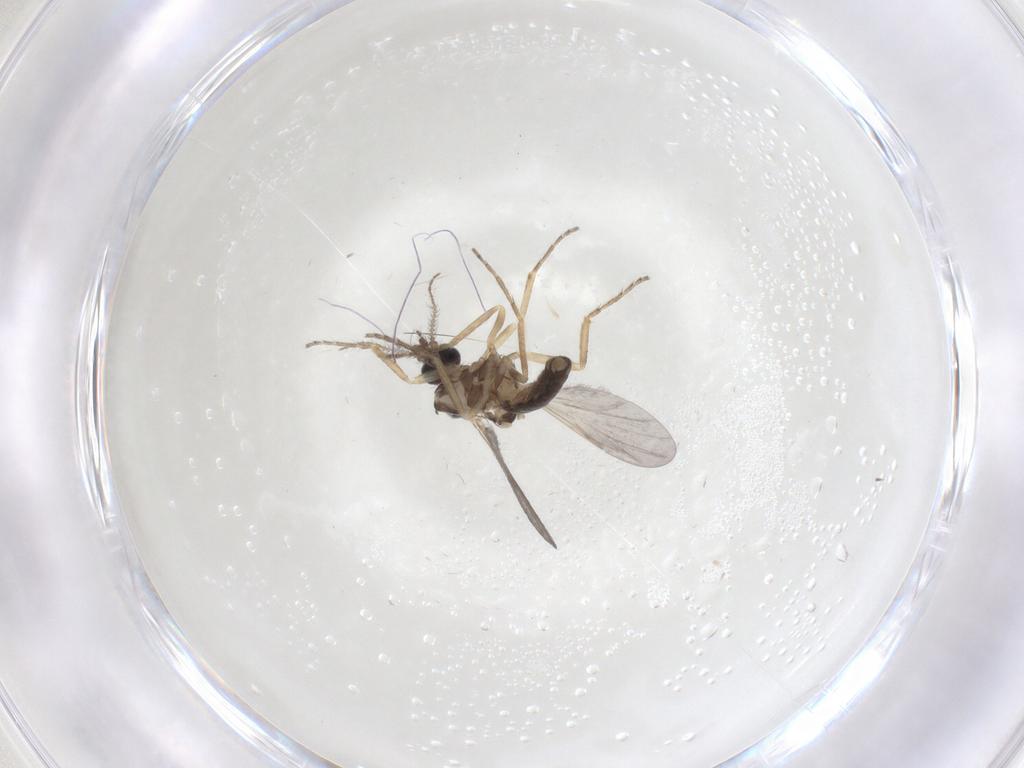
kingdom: Animalia
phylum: Arthropoda
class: Insecta
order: Diptera
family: Ceratopogonidae
